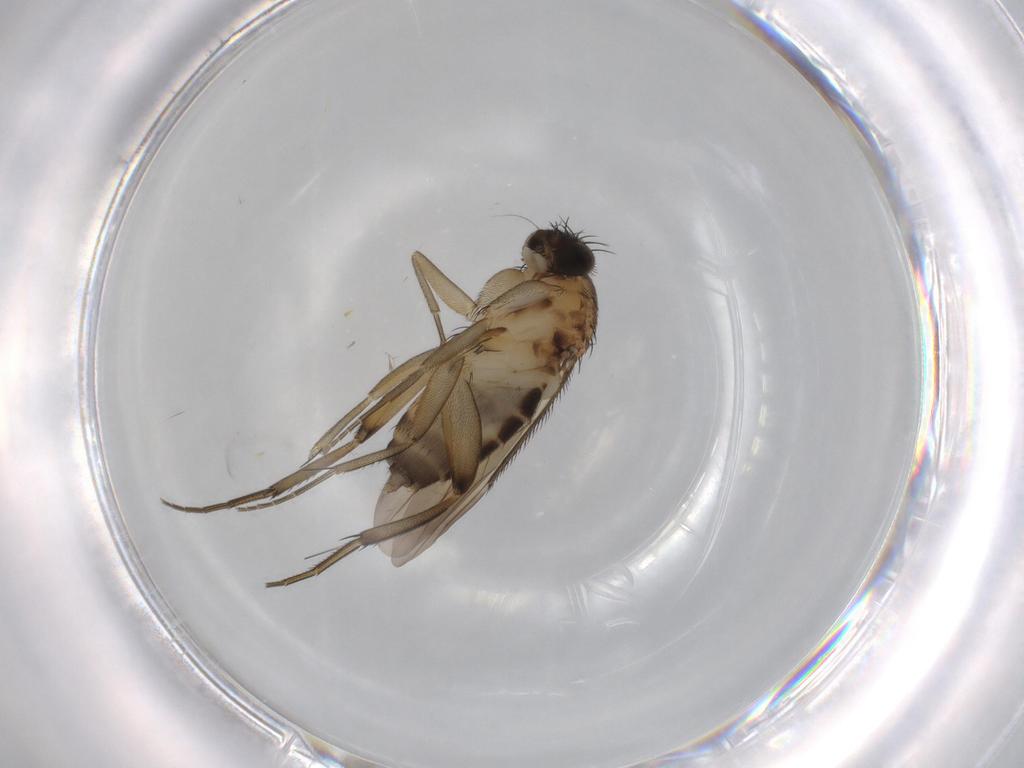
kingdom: Animalia
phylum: Arthropoda
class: Insecta
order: Diptera
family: Phoridae
